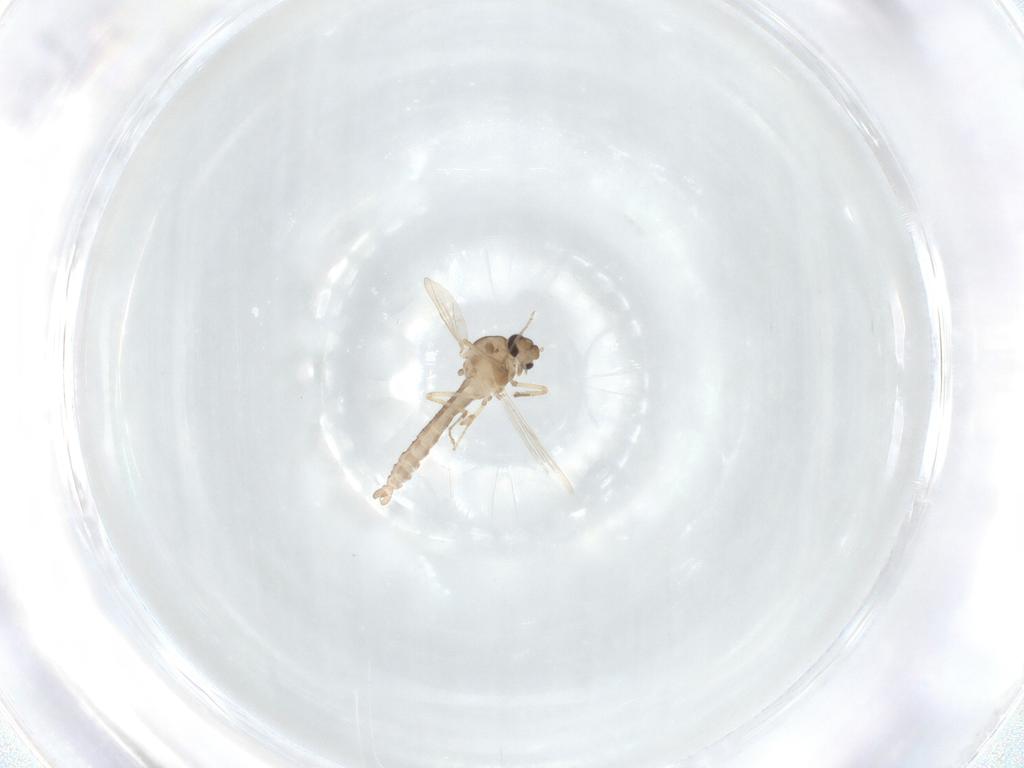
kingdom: Animalia
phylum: Arthropoda
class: Insecta
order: Diptera
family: Ceratopogonidae
